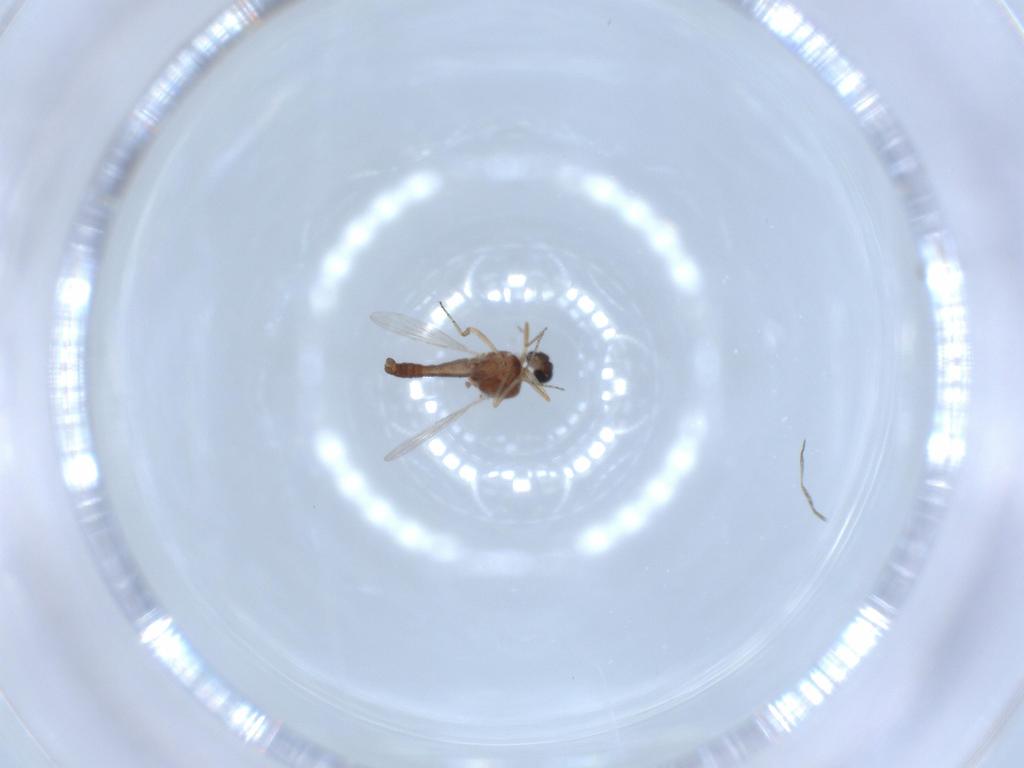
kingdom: Animalia
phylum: Arthropoda
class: Insecta
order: Diptera
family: Ceratopogonidae
